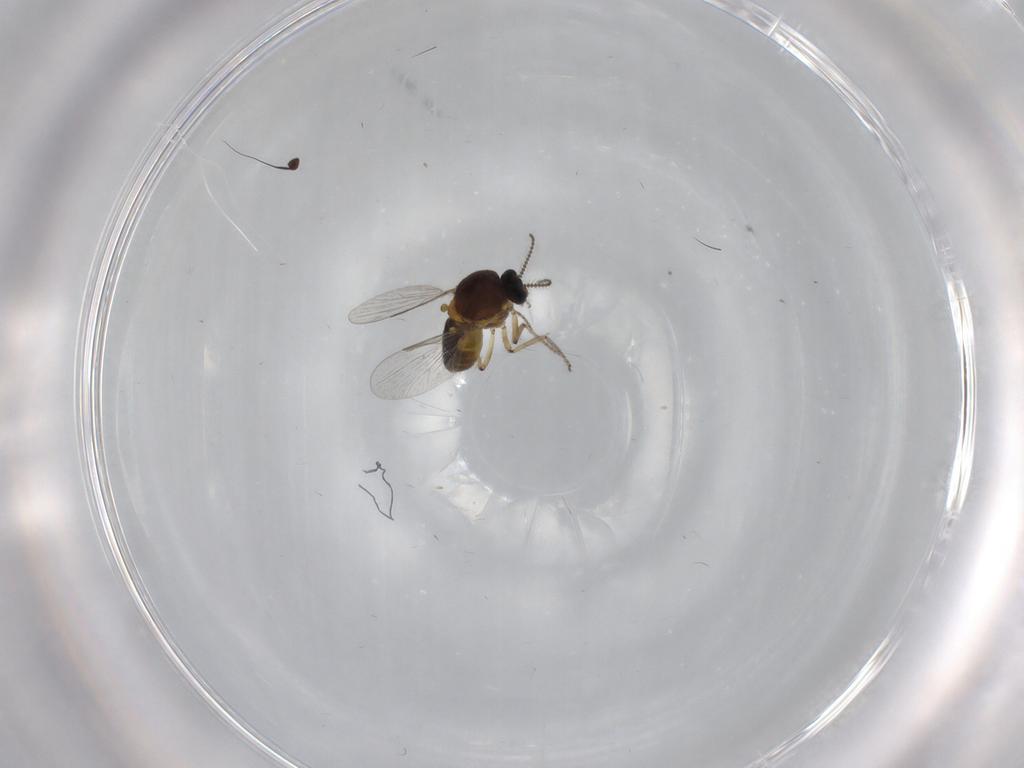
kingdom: Animalia
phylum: Arthropoda
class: Insecta
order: Diptera
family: Ceratopogonidae
